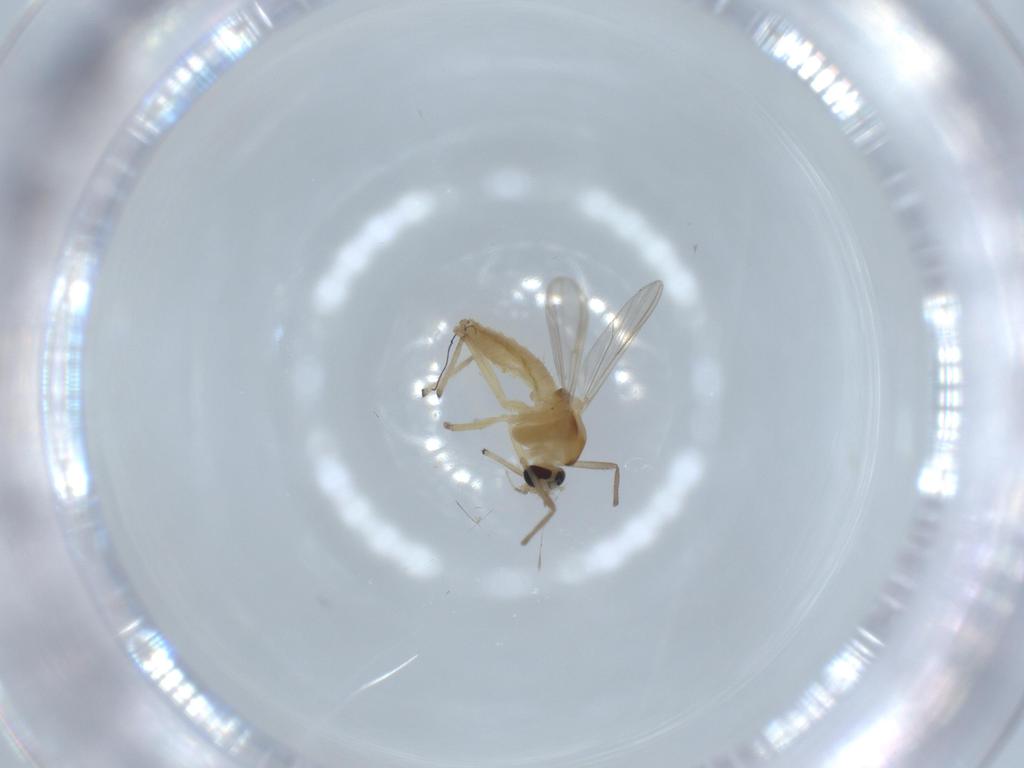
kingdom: Animalia
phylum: Arthropoda
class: Insecta
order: Diptera
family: Chironomidae
